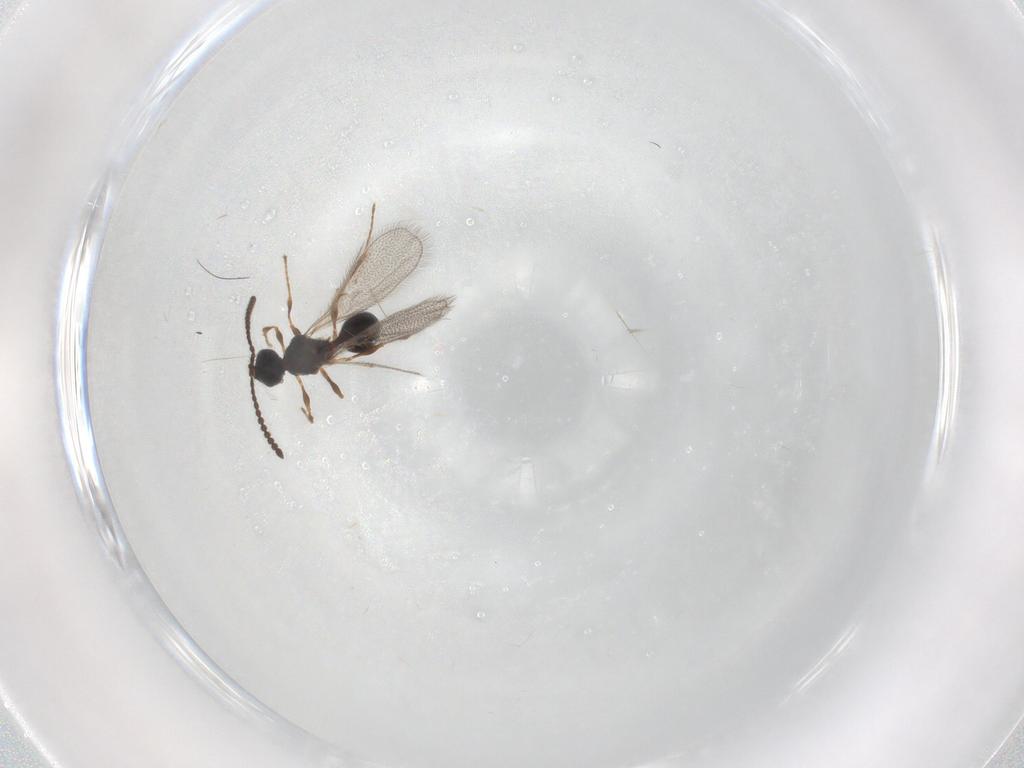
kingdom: Animalia
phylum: Arthropoda
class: Insecta
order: Hymenoptera
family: Diapriidae
